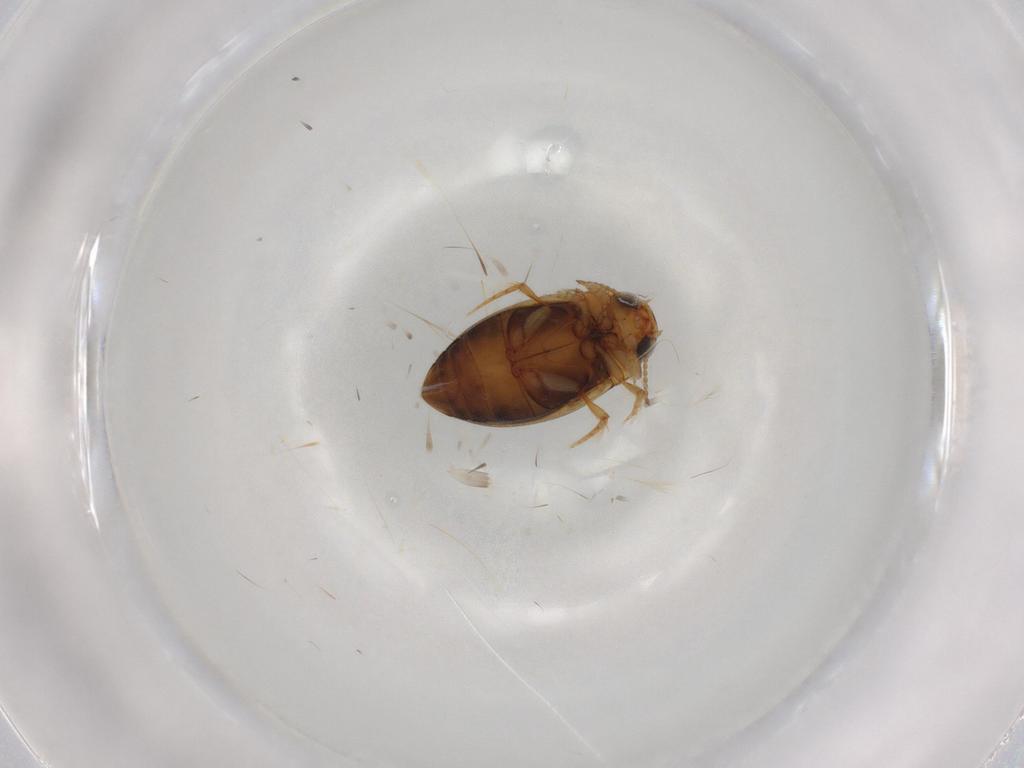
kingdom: Animalia
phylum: Arthropoda
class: Insecta
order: Coleoptera
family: Dytiscidae
